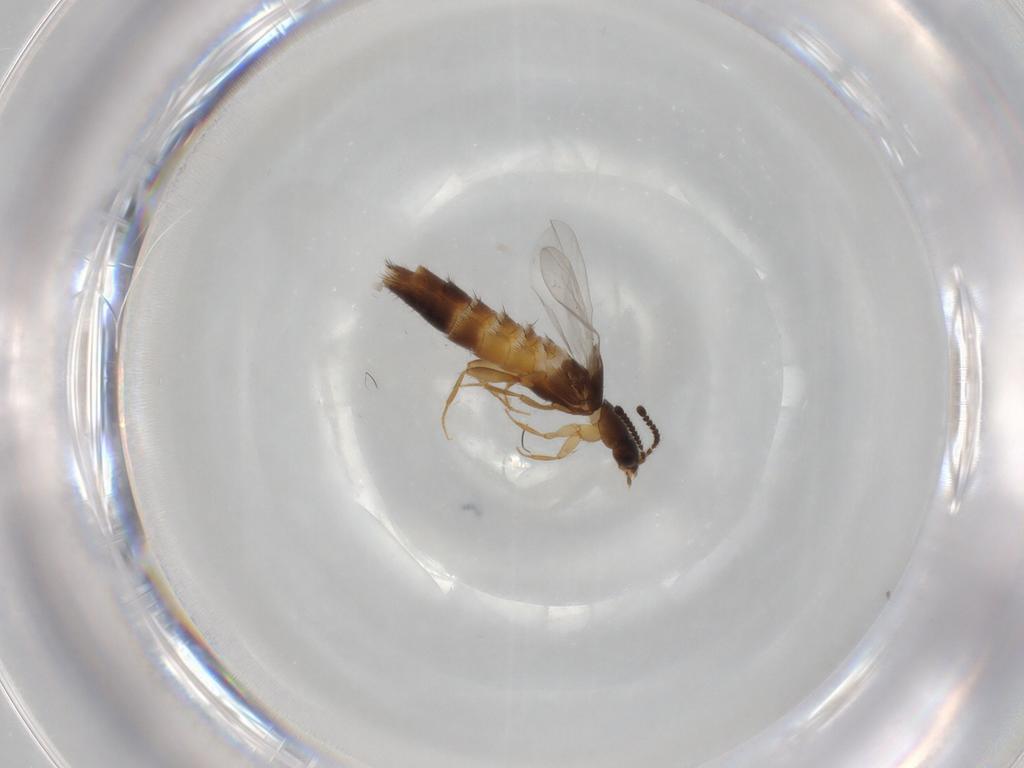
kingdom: Animalia
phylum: Arthropoda
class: Insecta
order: Coleoptera
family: Staphylinidae
